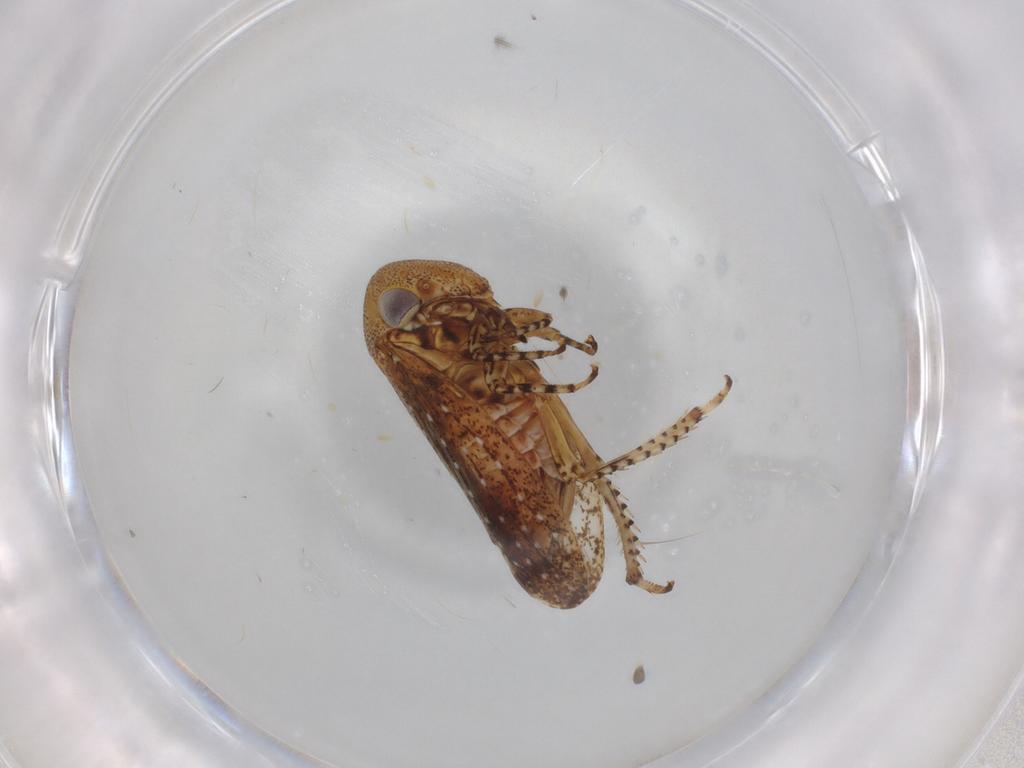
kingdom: Animalia
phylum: Arthropoda
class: Insecta
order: Hemiptera
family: Cicadellidae
